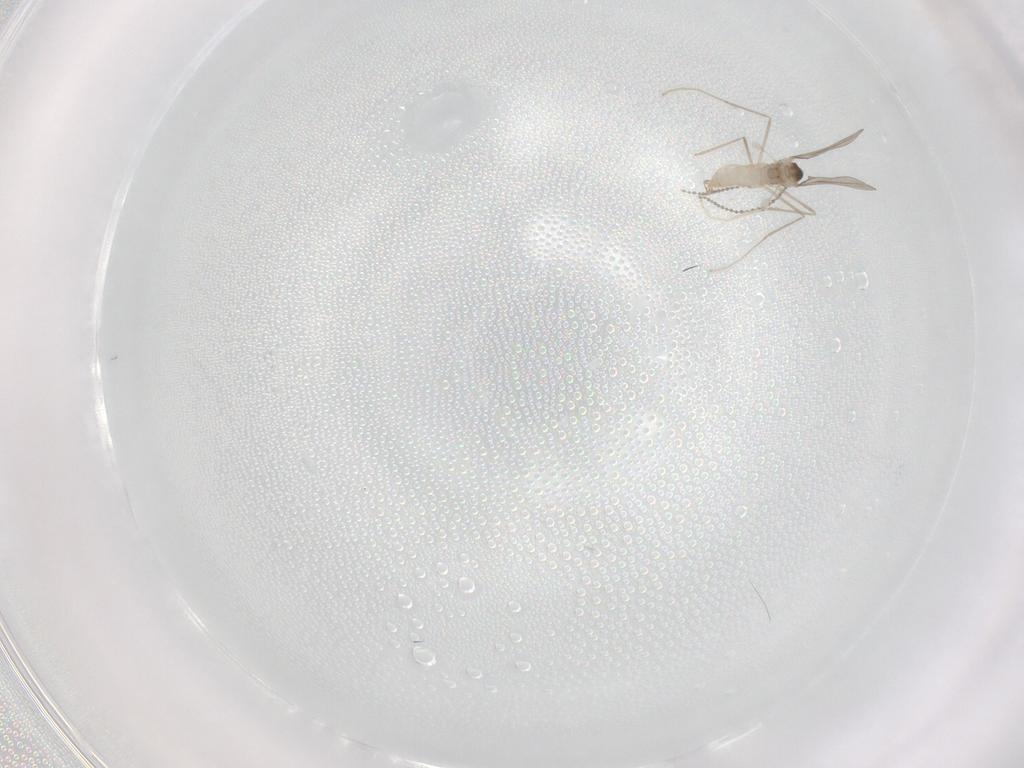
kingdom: Animalia
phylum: Arthropoda
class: Insecta
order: Diptera
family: Cecidomyiidae
